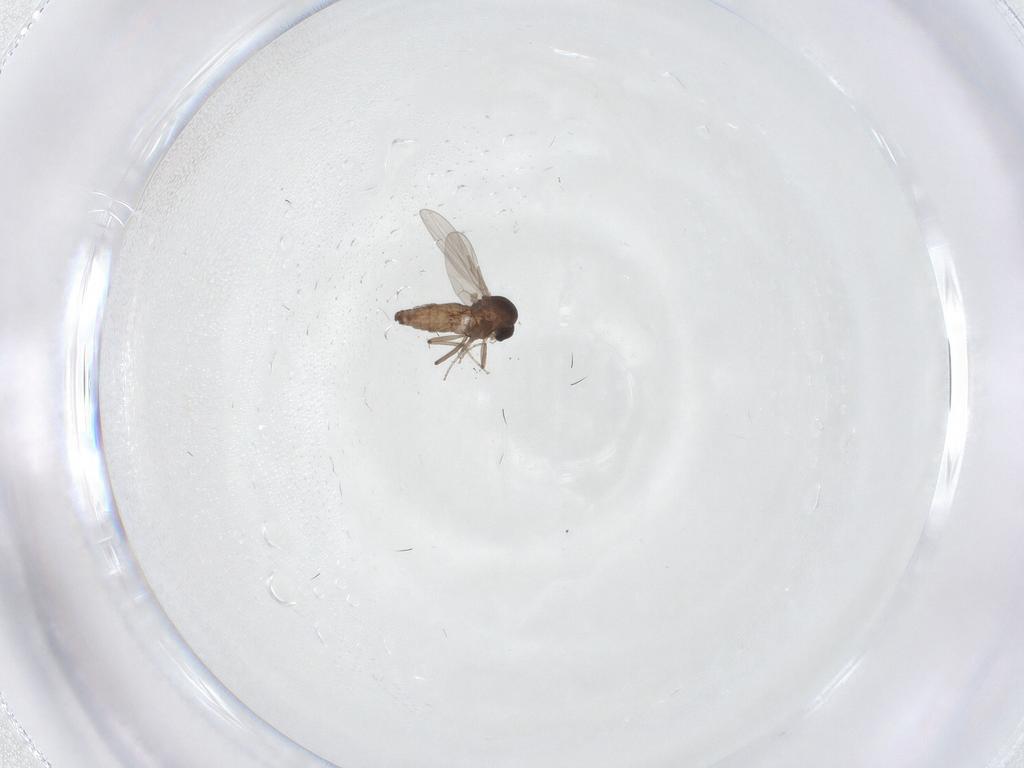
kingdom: Animalia
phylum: Arthropoda
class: Insecta
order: Diptera
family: Ceratopogonidae
